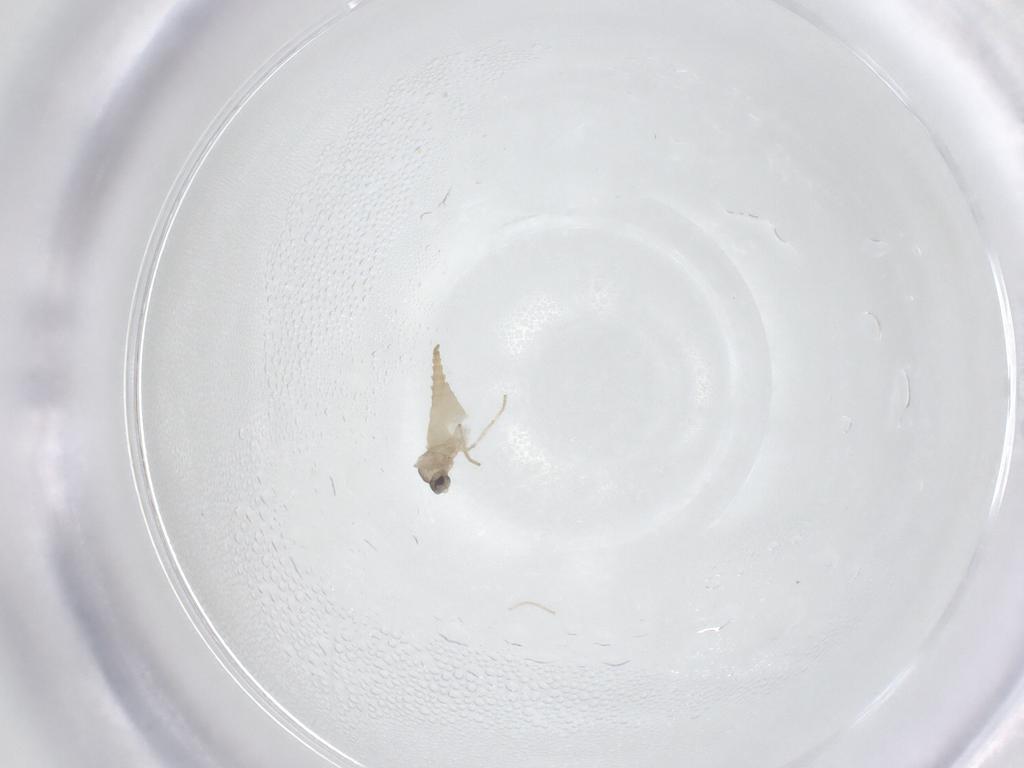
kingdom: Animalia
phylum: Arthropoda
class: Insecta
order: Diptera
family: Cecidomyiidae
